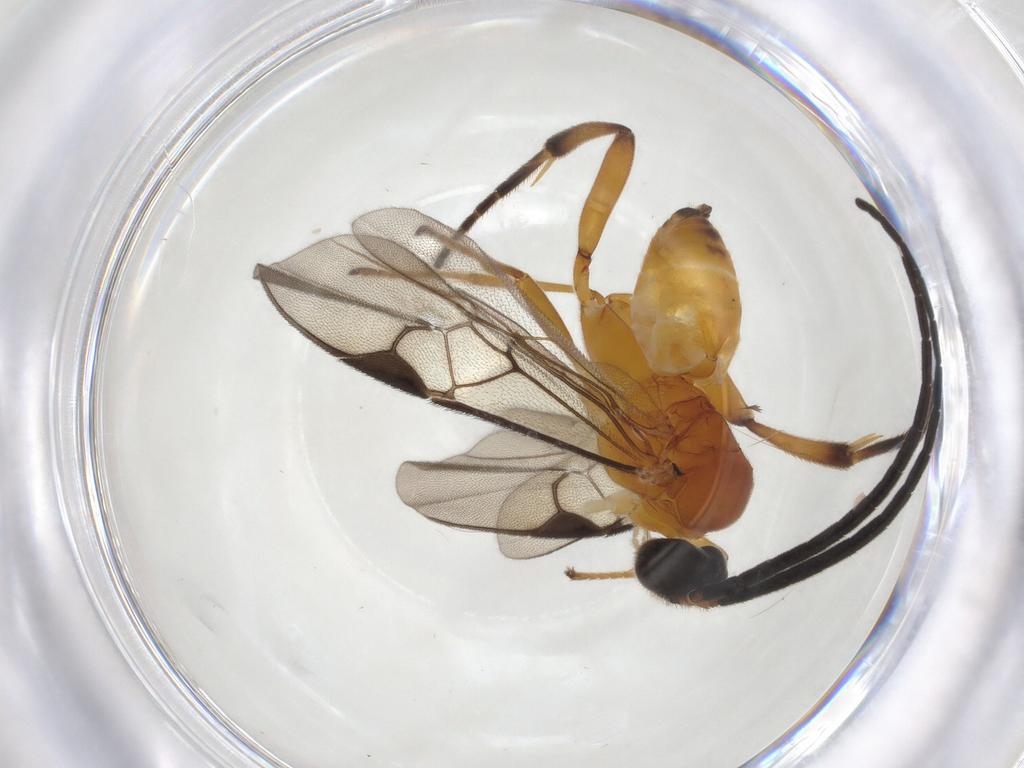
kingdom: Animalia
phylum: Arthropoda
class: Insecta
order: Hymenoptera
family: Braconidae
